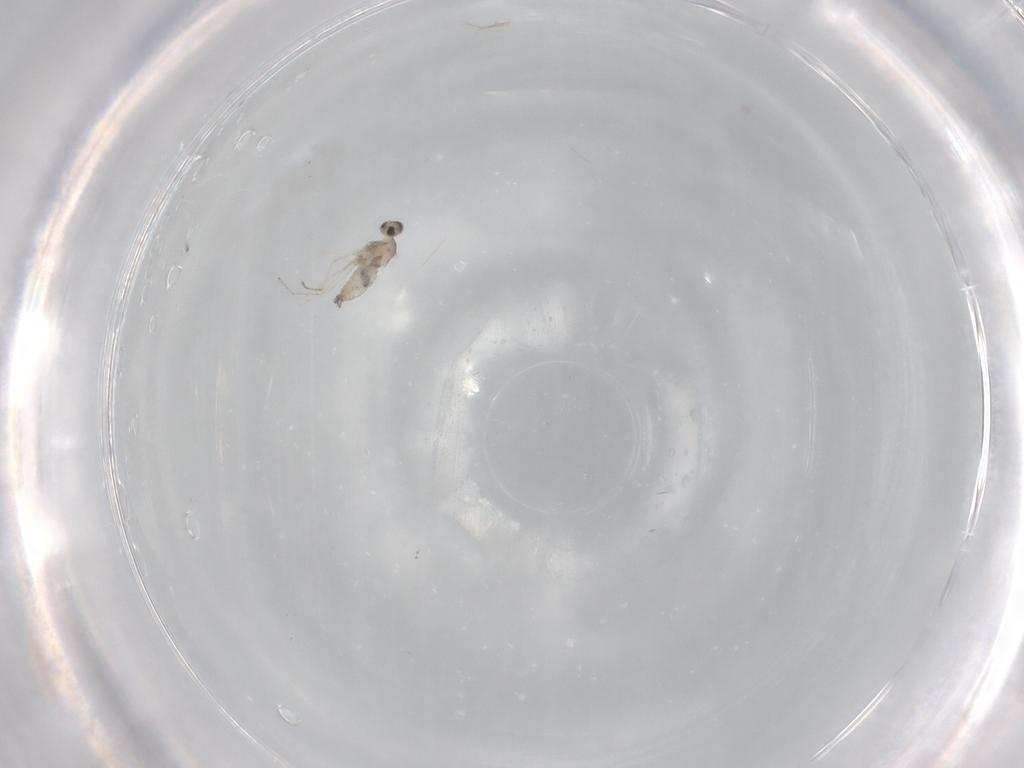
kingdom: Animalia
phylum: Arthropoda
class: Insecta
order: Diptera
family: Cecidomyiidae
